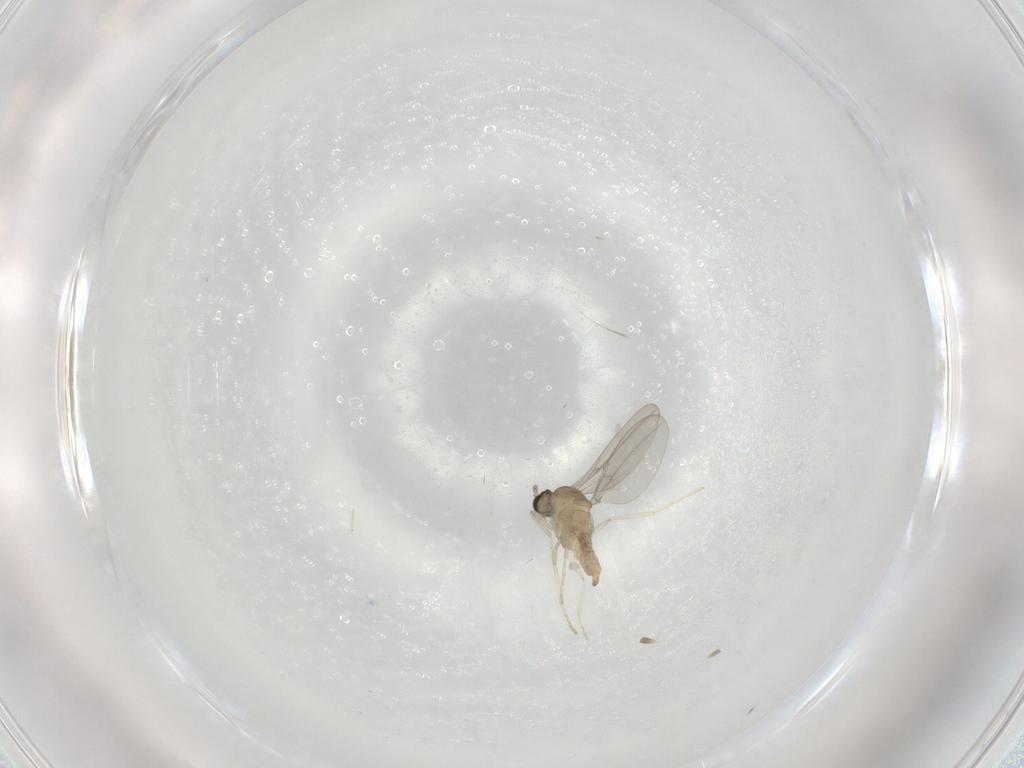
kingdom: Animalia
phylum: Arthropoda
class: Insecta
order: Diptera
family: Cecidomyiidae
